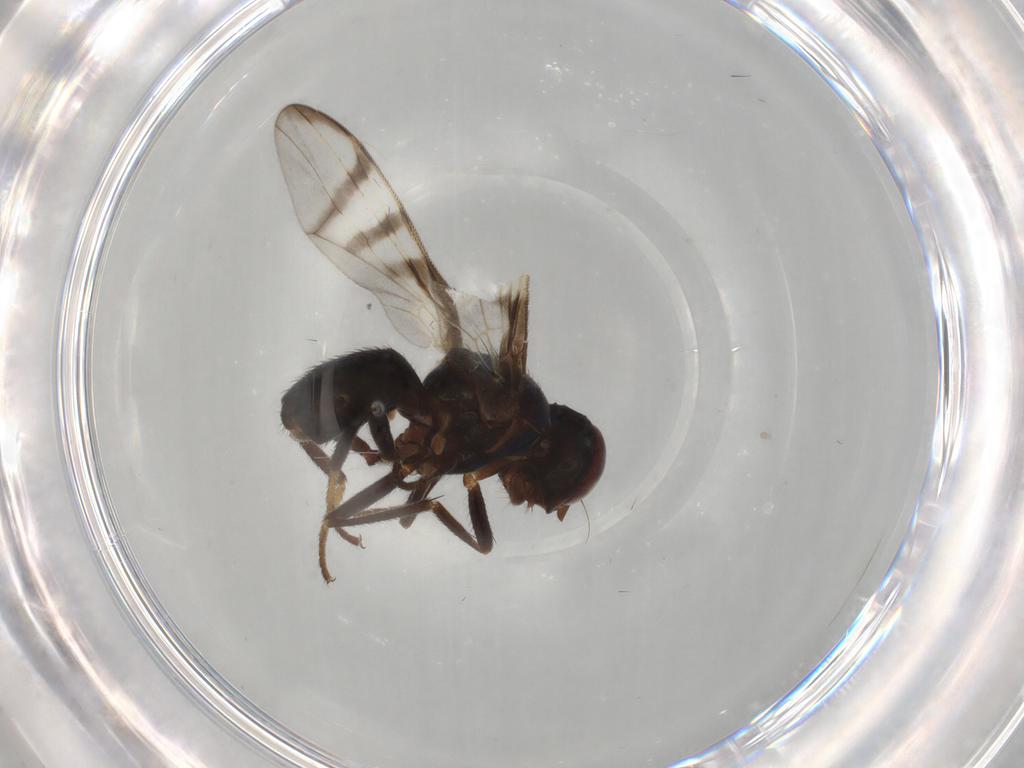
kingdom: Animalia
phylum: Arthropoda
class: Insecta
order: Diptera
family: Platystomatidae
